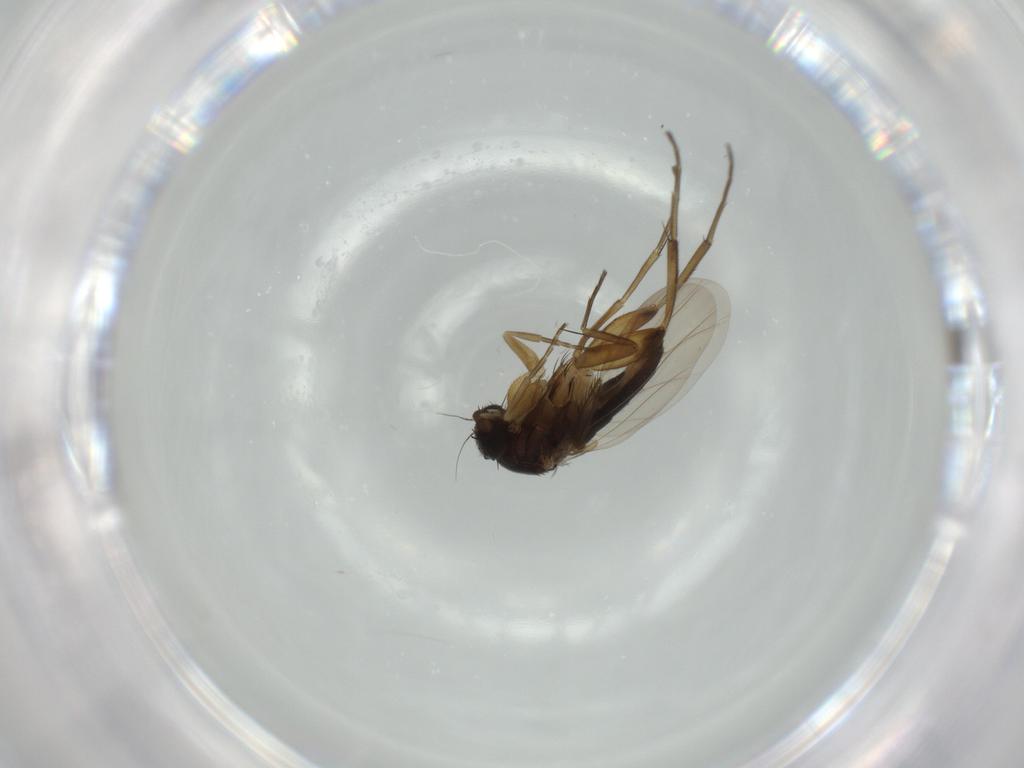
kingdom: Animalia
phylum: Arthropoda
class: Insecta
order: Diptera
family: Phoridae
